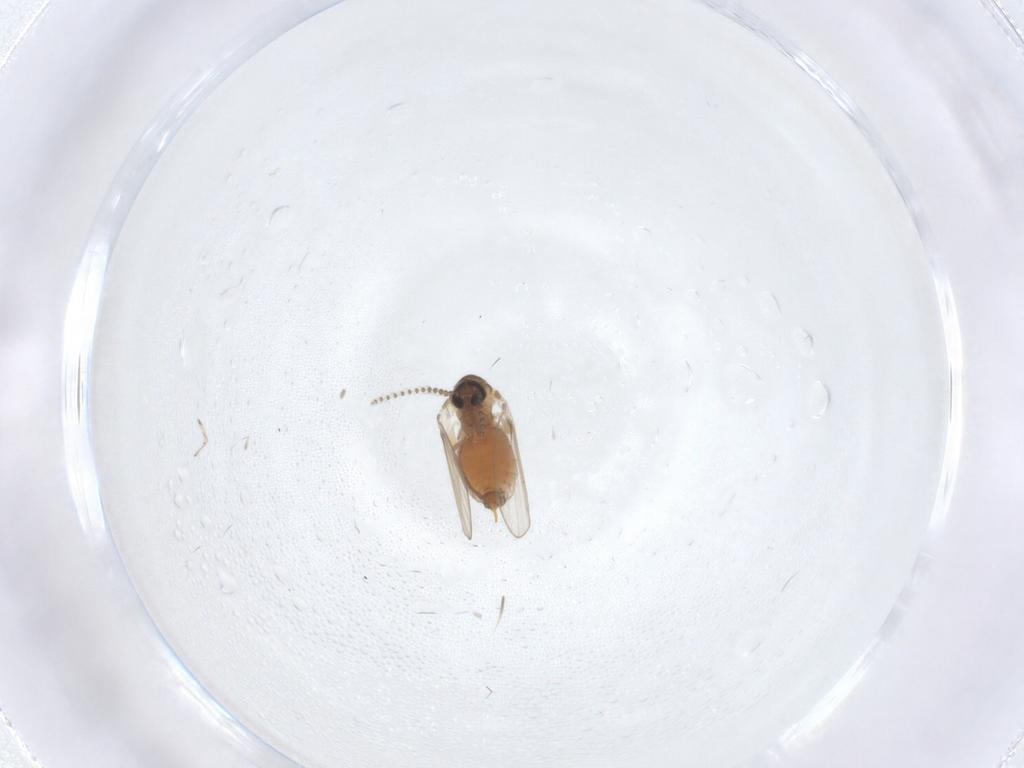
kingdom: Animalia
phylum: Arthropoda
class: Insecta
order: Diptera
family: Psychodidae
